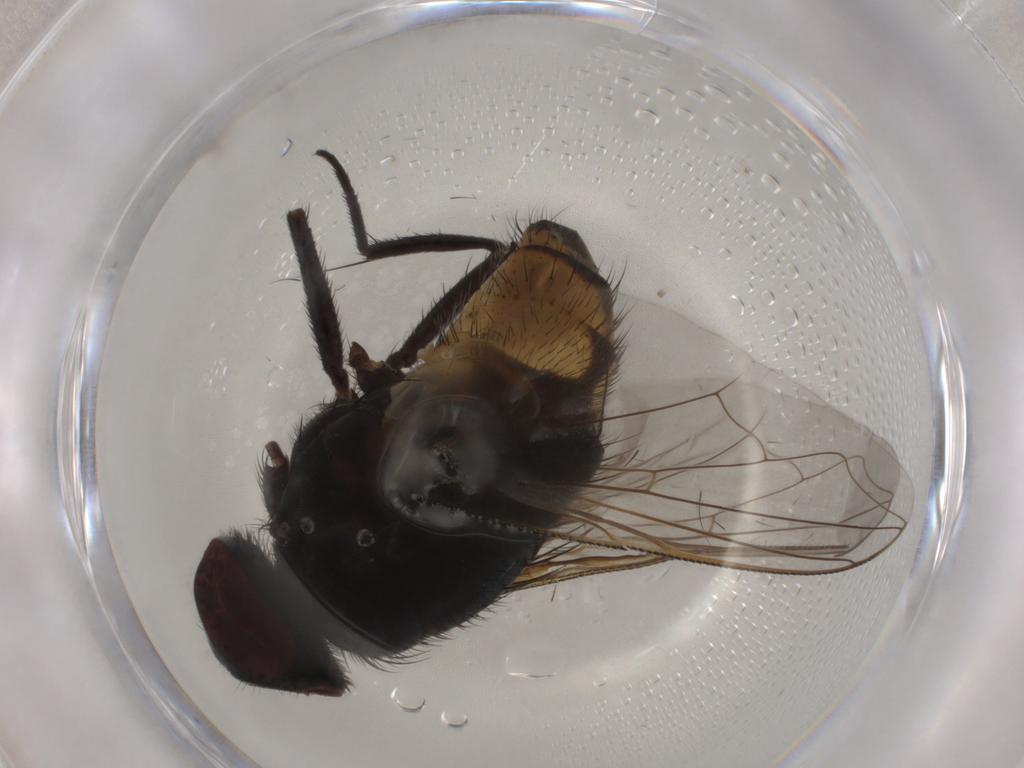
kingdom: Animalia
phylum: Arthropoda
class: Insecta
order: Diptera
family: Muscidae
